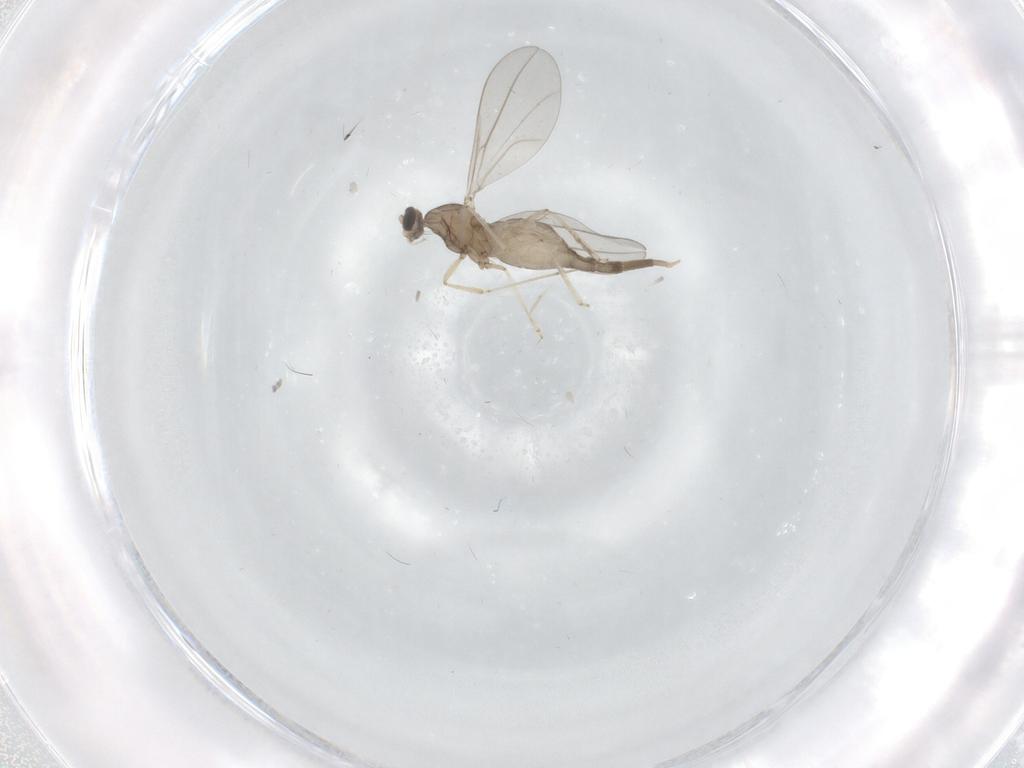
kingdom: Animalia
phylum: Arthropoda
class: Insecta
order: Diptera
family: Cecidomyiidae
